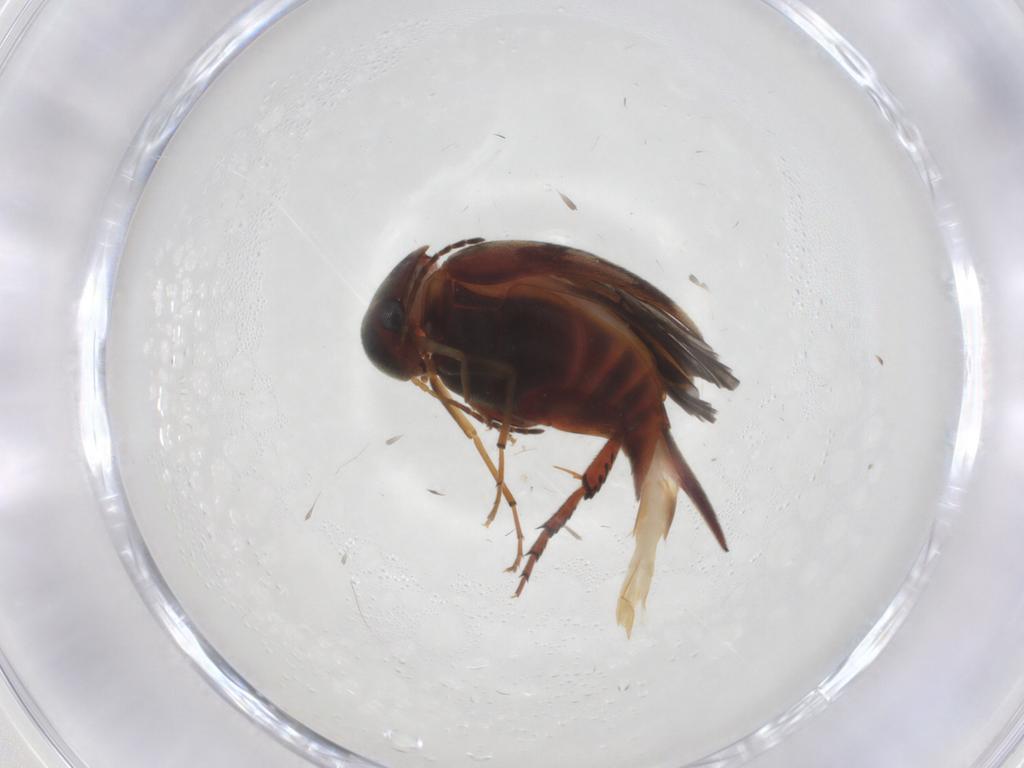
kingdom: Animalia
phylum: Arthropoda
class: Insecta
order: Coleoptera
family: Mordellidae
